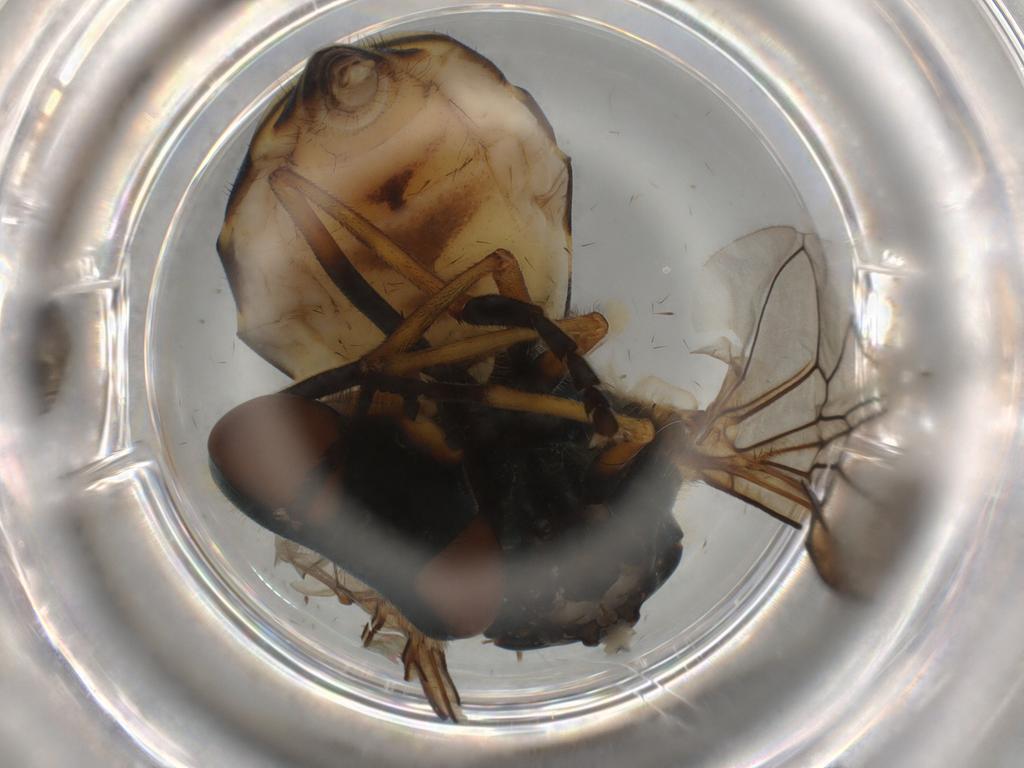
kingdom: Animalia
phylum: Arthropoda
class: Insecta
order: Diptera
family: Syrphidae
